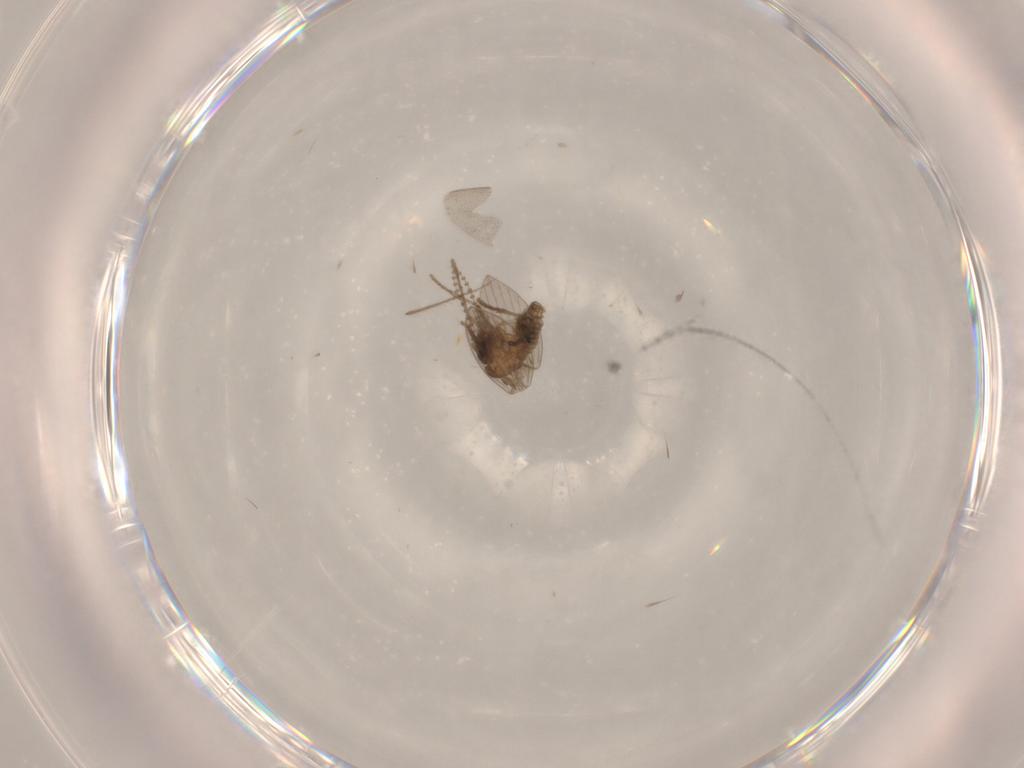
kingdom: Animalia
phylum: Arthropoda
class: Insecta
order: Diptera
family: Psychodidae
